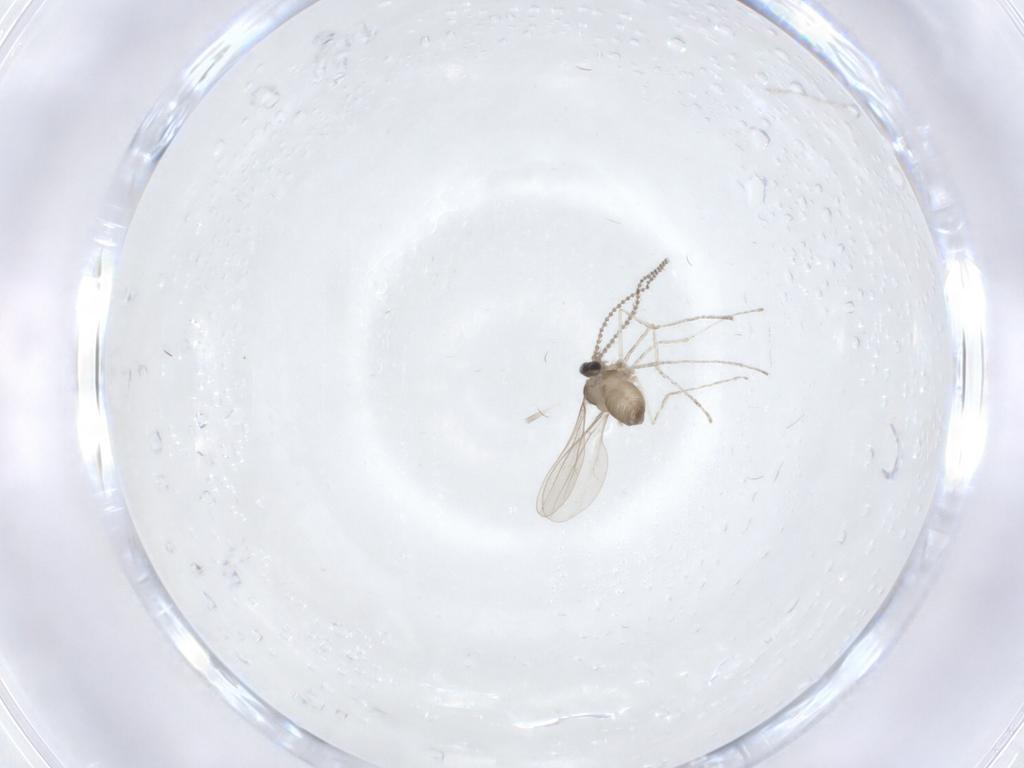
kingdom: Animalia
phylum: Arthropoda
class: Insecta
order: Diptera
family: Cecidomyiidae
